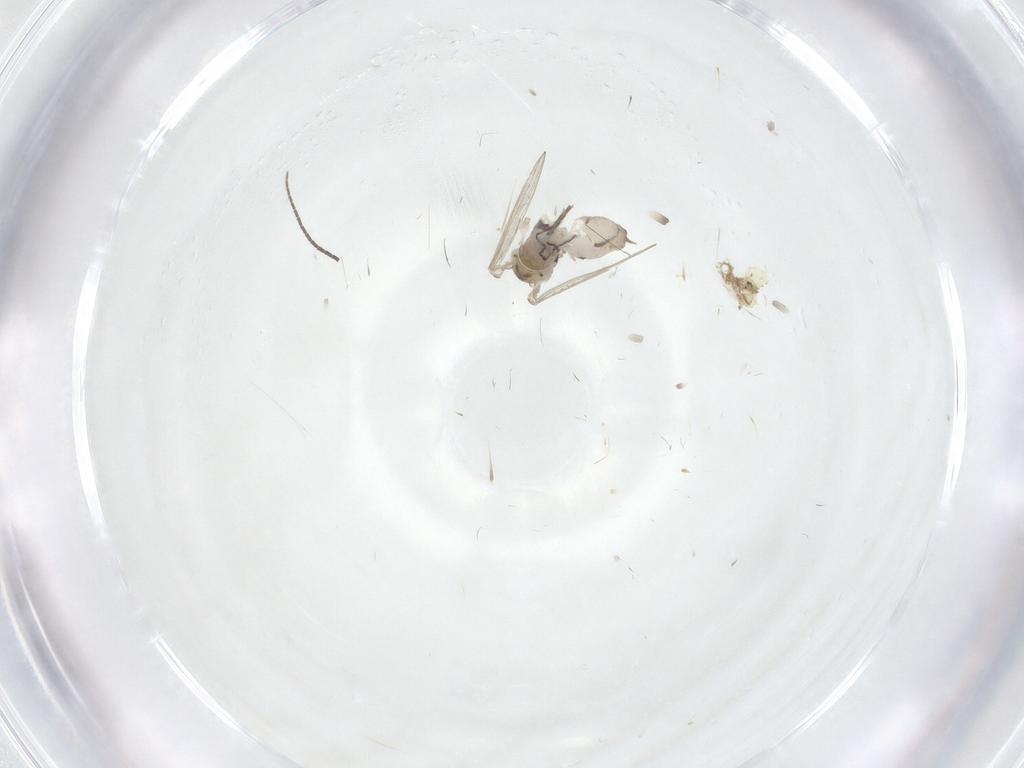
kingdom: Animalia
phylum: Arthropoda
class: Insecta
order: Diptera
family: Psychodidae
